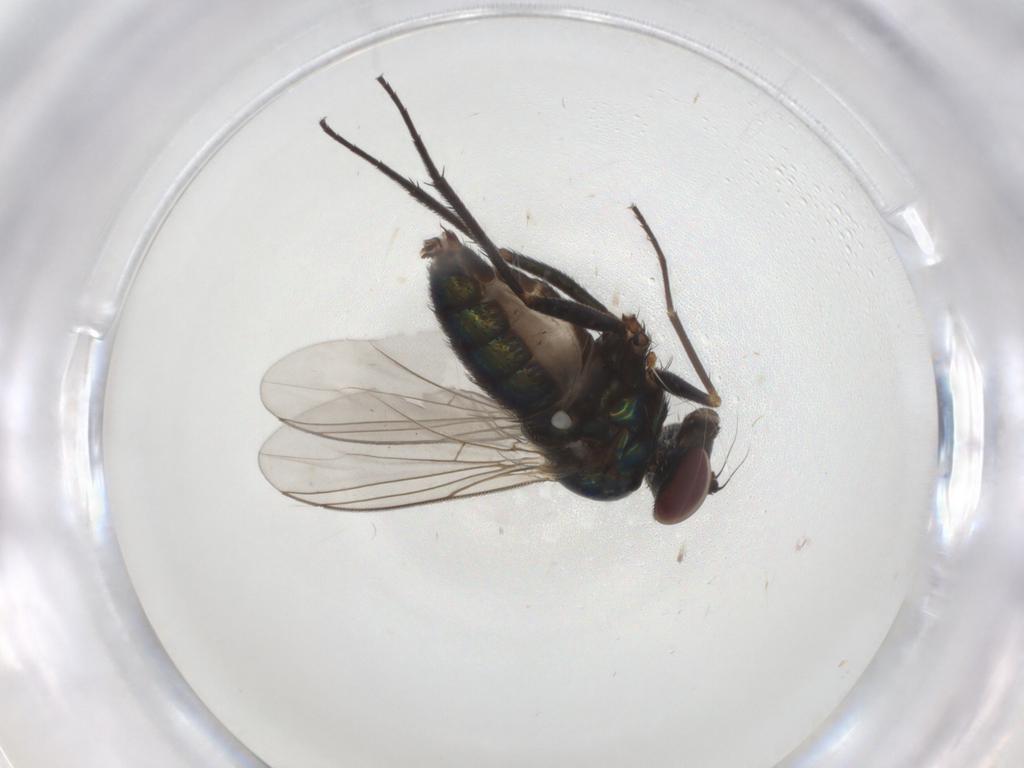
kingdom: Animalia
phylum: Arthropoda
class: Insecta
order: Diptera
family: Dolichopodidae
